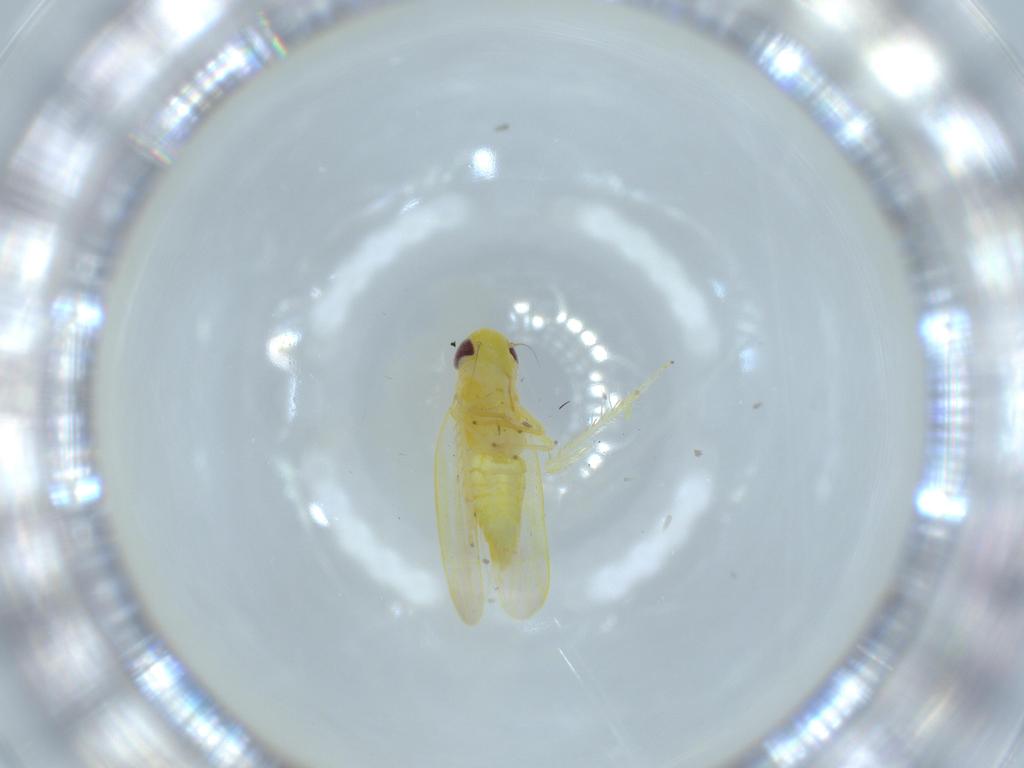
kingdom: Animalia
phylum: Arthropoda
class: Insecta
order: Hemiptera
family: Cicadellidae
